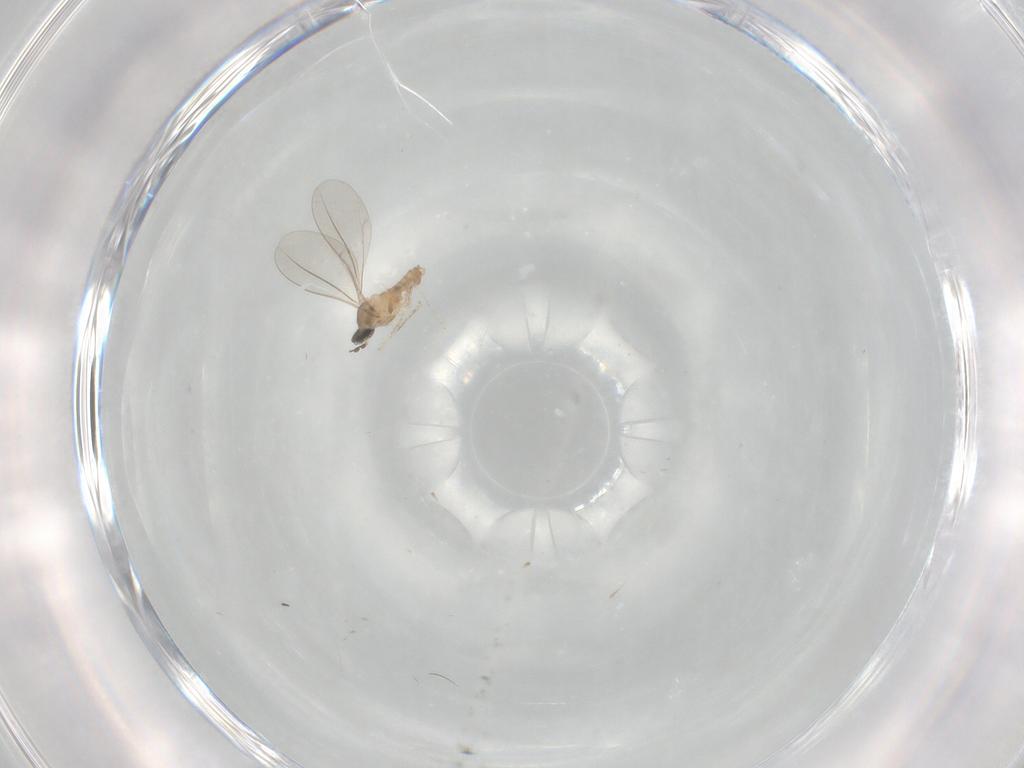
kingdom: Animalia
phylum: Arthropoda
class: Insecta
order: Diptera
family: Cecidomyiidae
